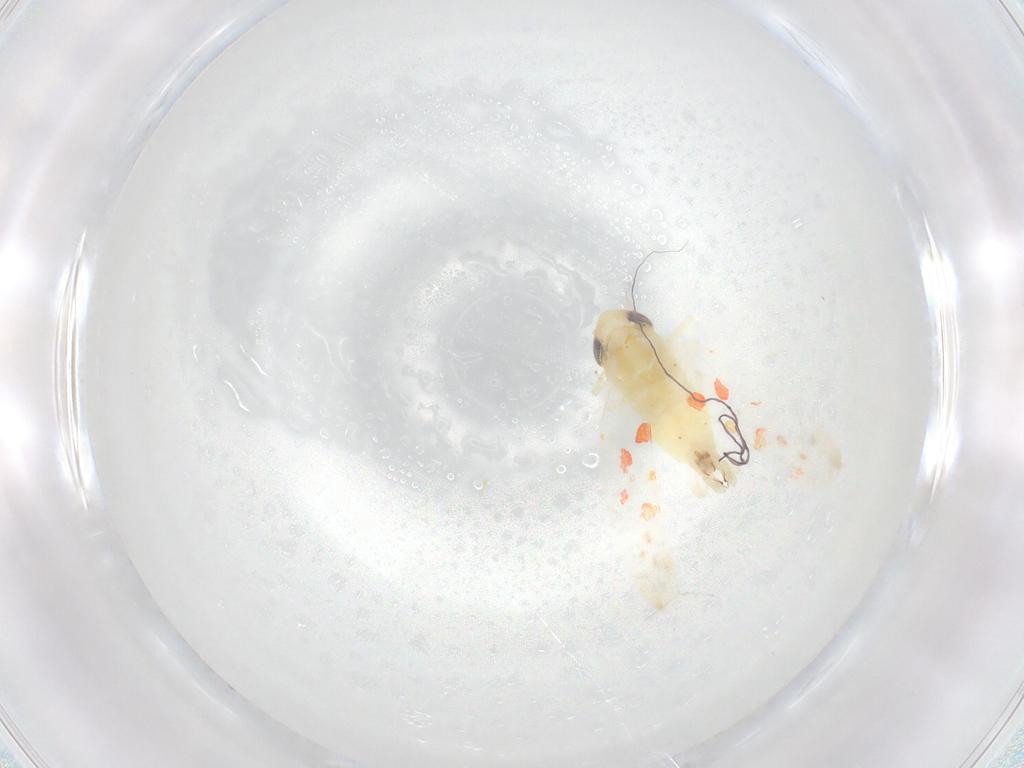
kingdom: Animalia
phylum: Arthropoda
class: Insecta
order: Hemiptera
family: Cicadellidae
